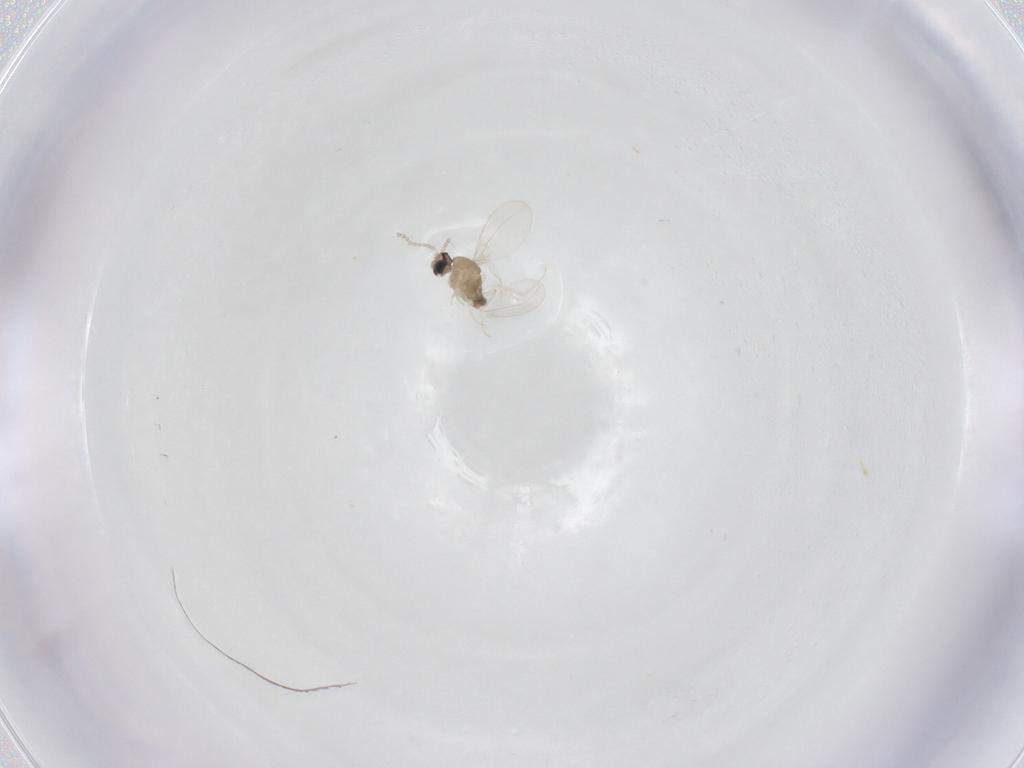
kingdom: Animalia
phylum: Arthropoda
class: Insecta
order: Diptera
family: Cecidomyiidae
